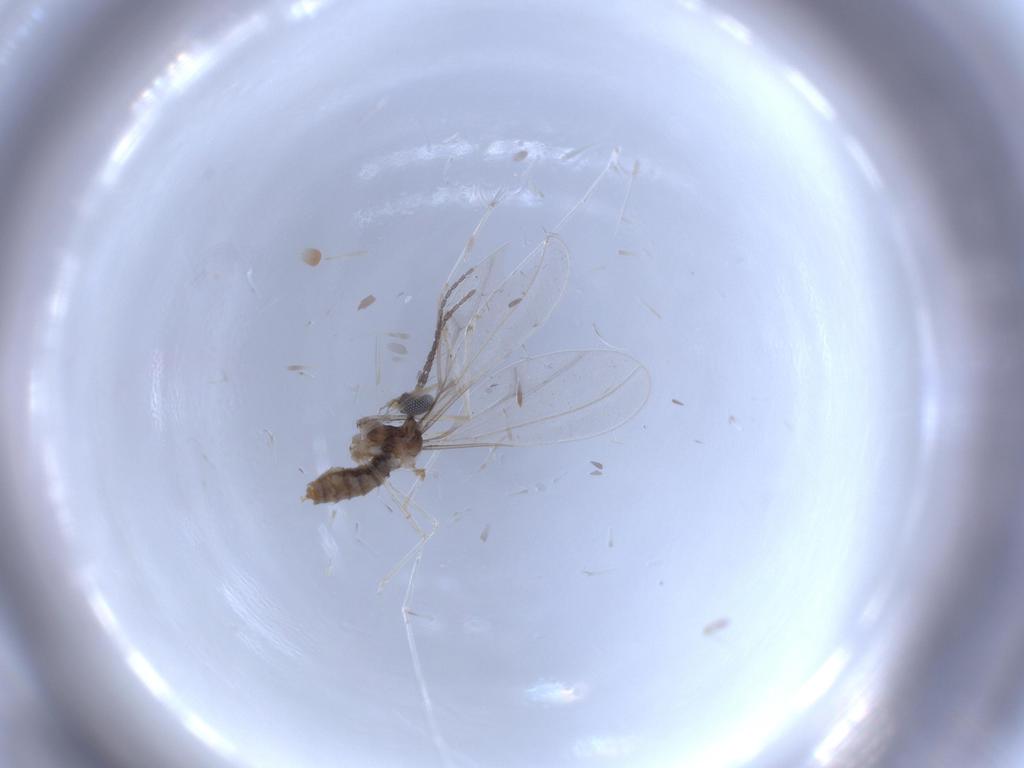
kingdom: Animalia
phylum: Arthropoda
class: Insecta
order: Diptera
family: Cecidomyiidae
